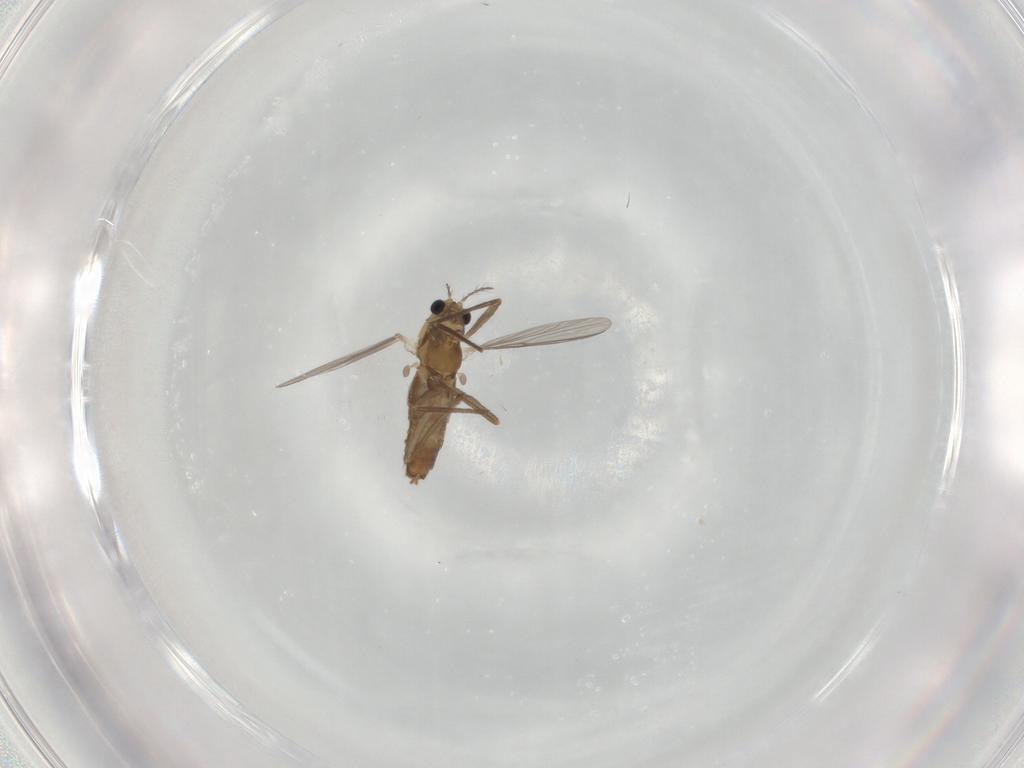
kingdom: Animalia
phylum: Arthropoda
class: Insecta
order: Diptera
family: Chironomidae
